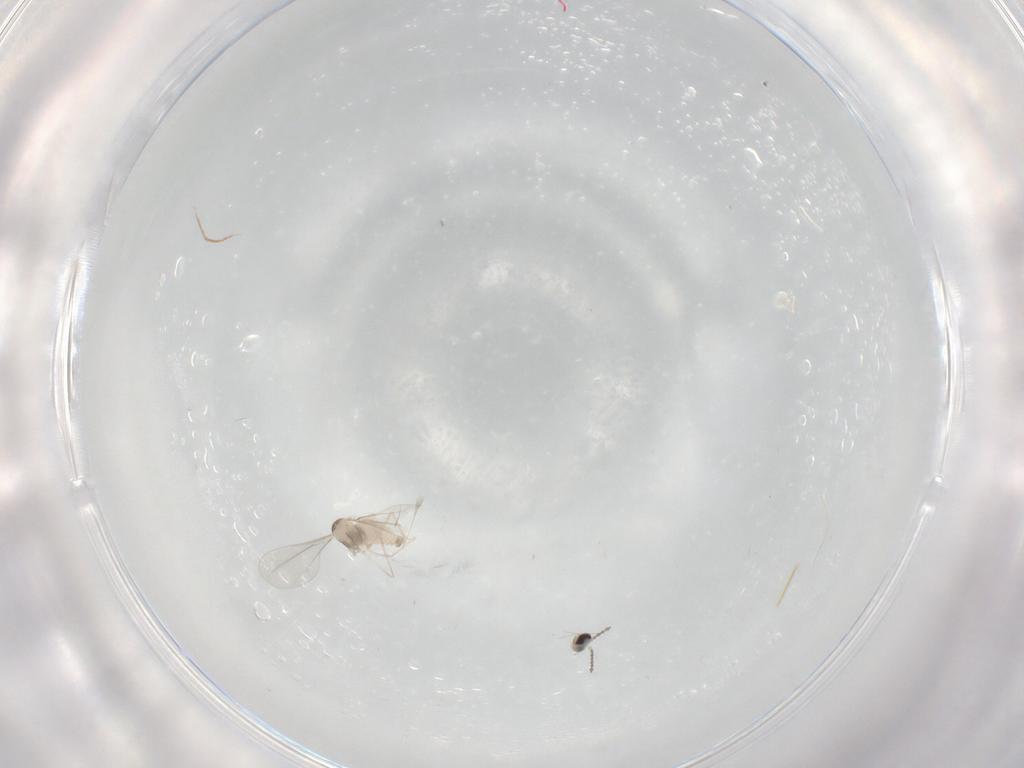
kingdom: Animalia
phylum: Arthropoda
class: Insecta
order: Diptera
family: Cecidomyiidae
